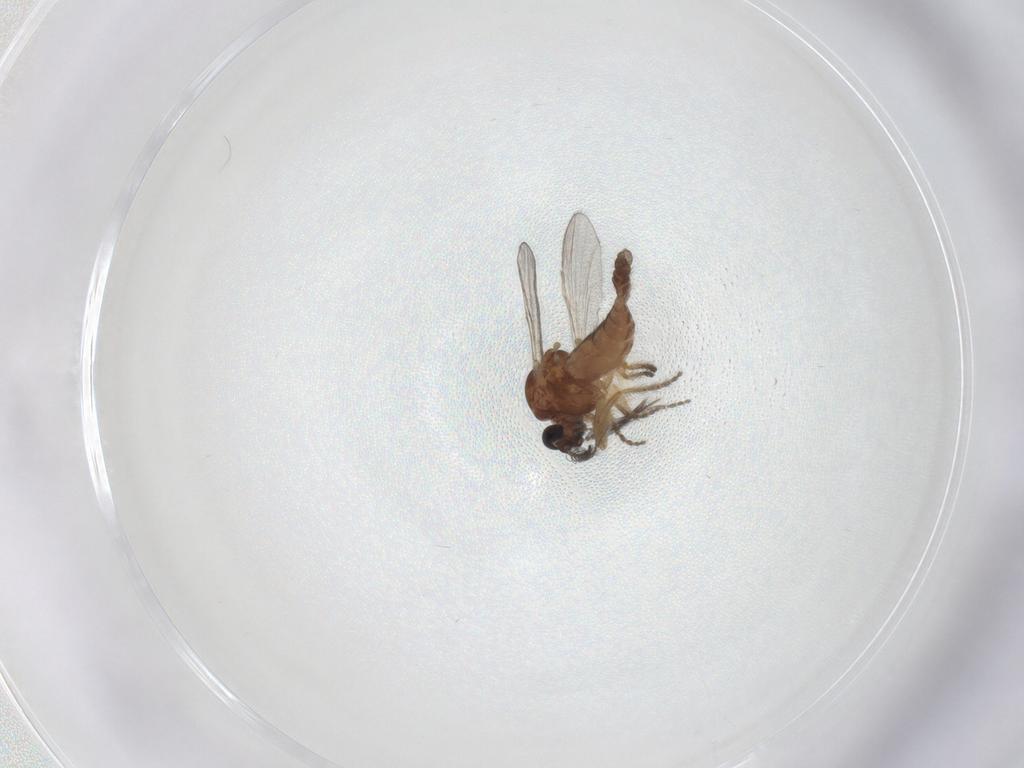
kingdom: Animalia
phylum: Arthropoda
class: Insecta
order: Diptera
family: Ceratopogonidae
